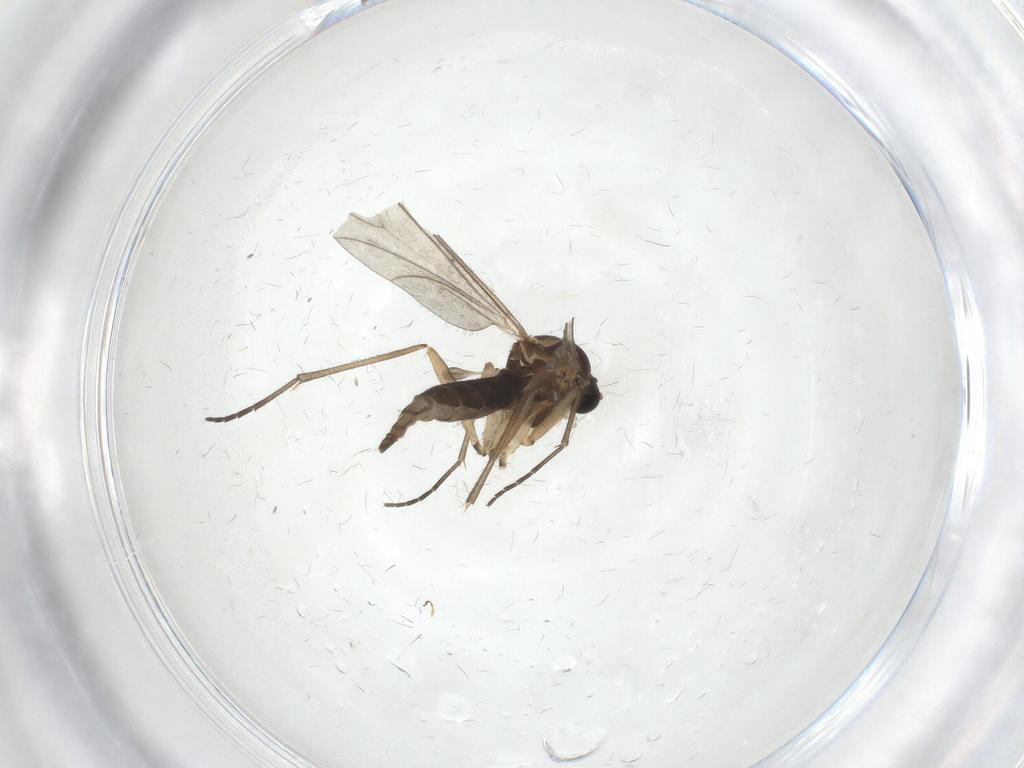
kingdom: Animalia
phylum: Arthropoda
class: Insecta
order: Diptera
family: Sciaridae
